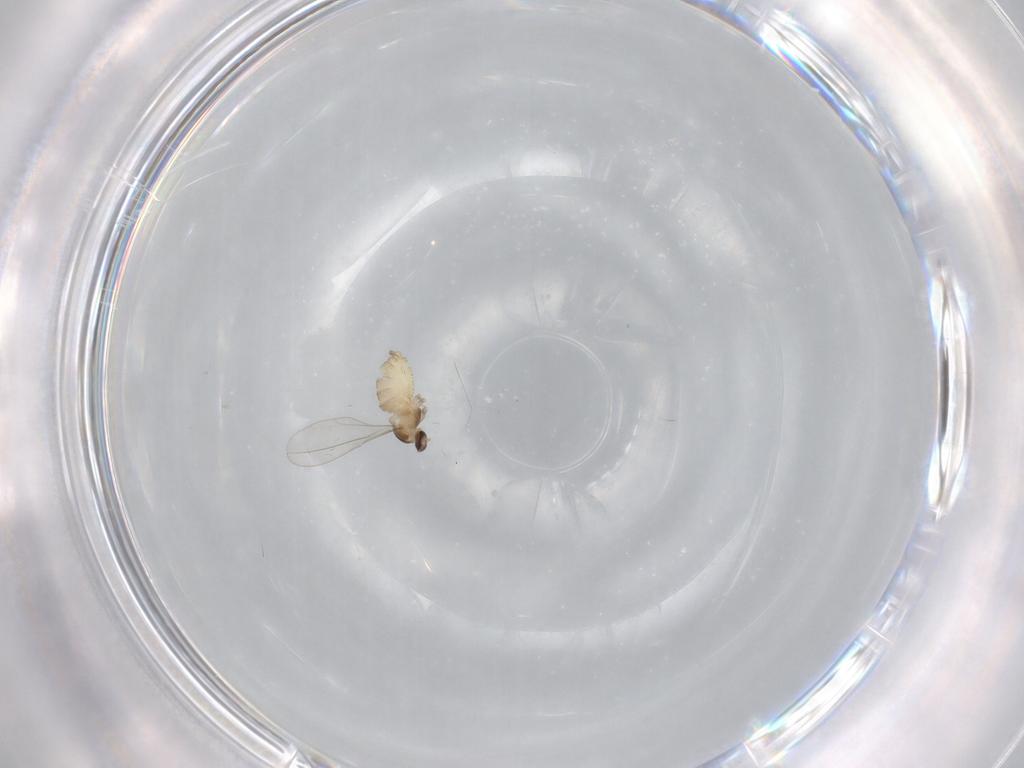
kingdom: Animalia
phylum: Arthropoda
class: Insecta
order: Diptera
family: Cecidomyiidae
